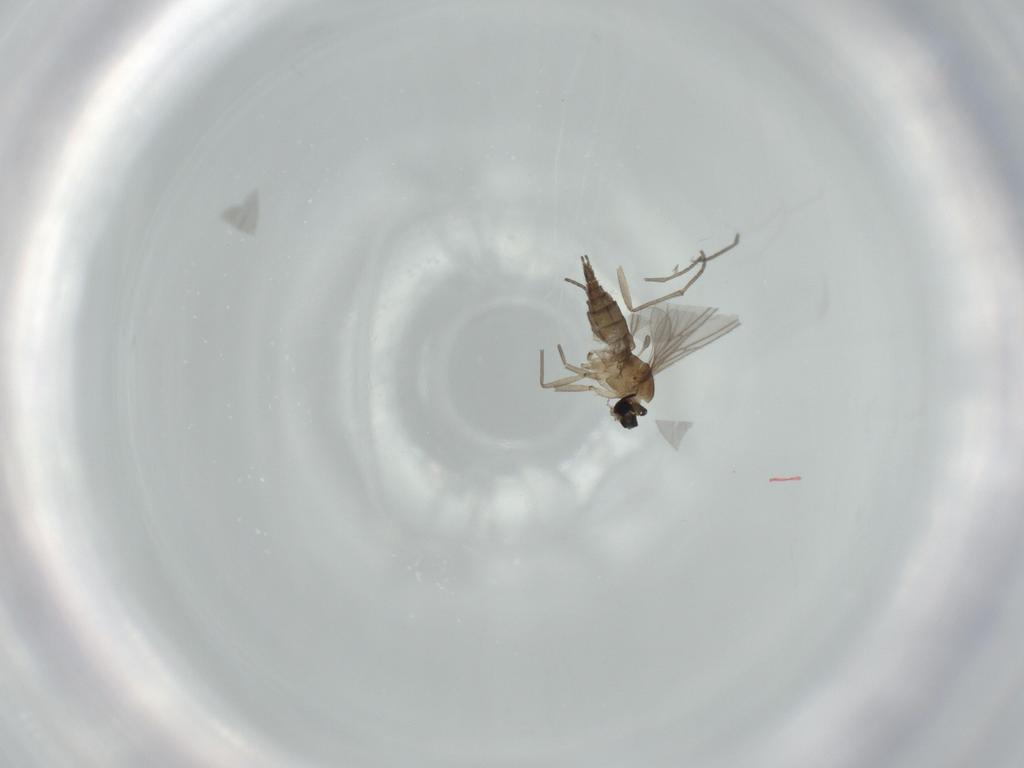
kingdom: Animalia
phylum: Arthropoda
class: Insecta
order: Diptera
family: Sciaridae
